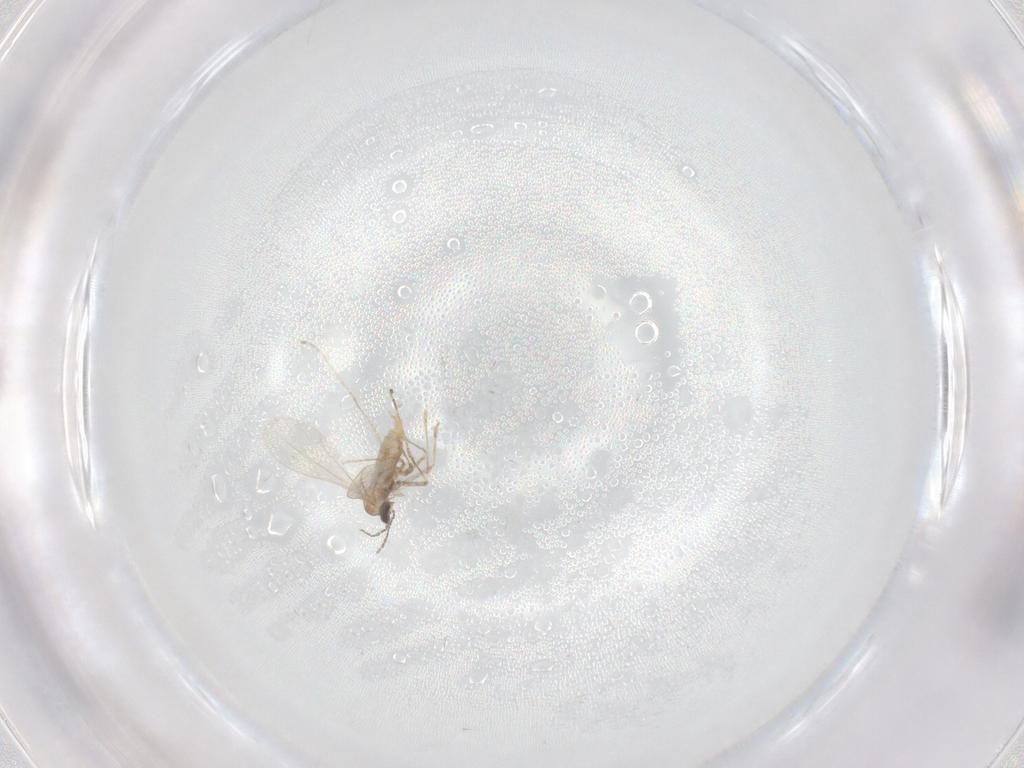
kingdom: Animalia
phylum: Arthropoda
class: Insecta
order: Diptera
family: Cecidomyiidae
